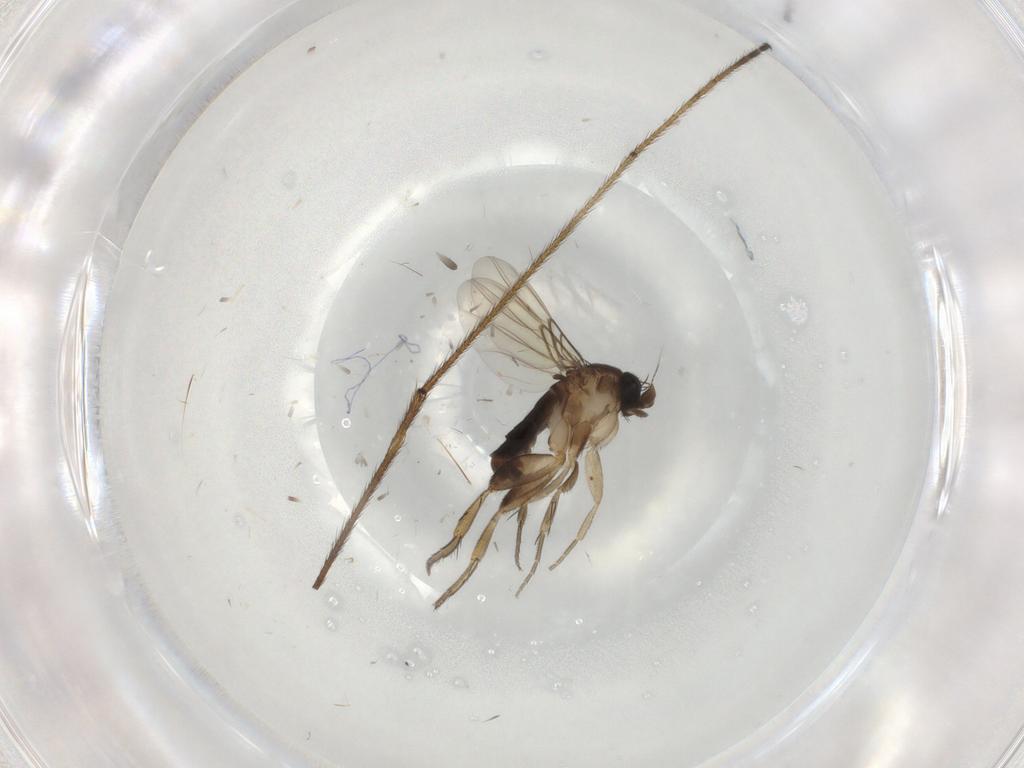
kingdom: Animalia
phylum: Arthropoda
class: Insecta
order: Diptera
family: Phoridae
